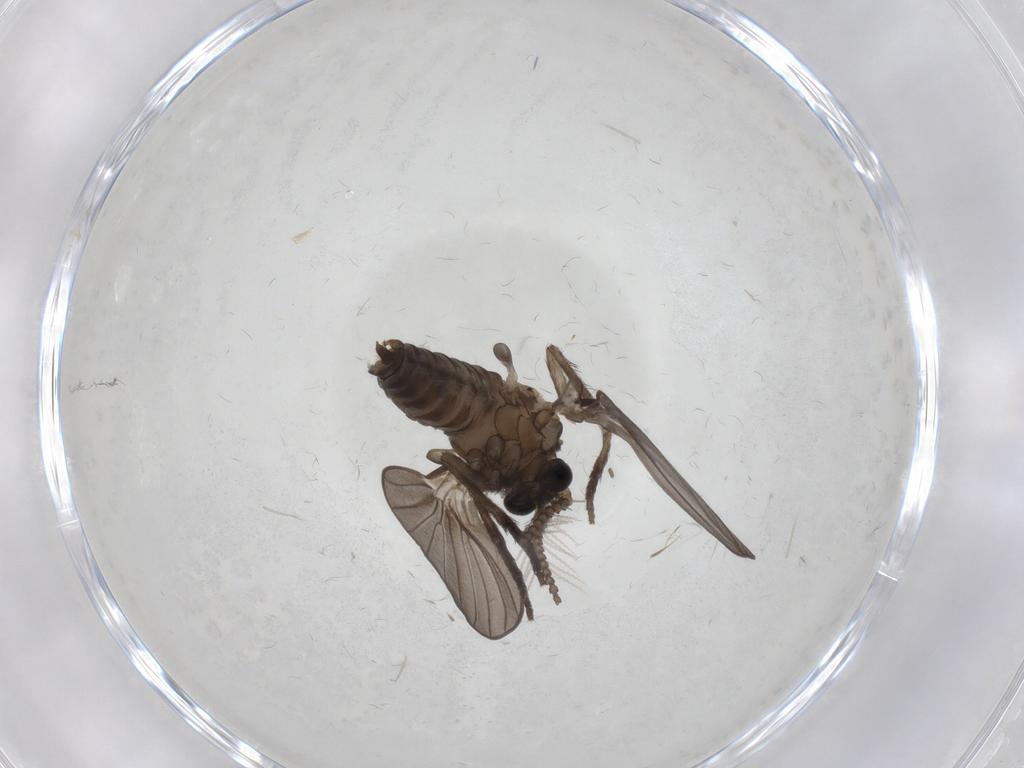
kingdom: Animalia
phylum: Arthropoda
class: Insecta
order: Diptera
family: Phoridae
